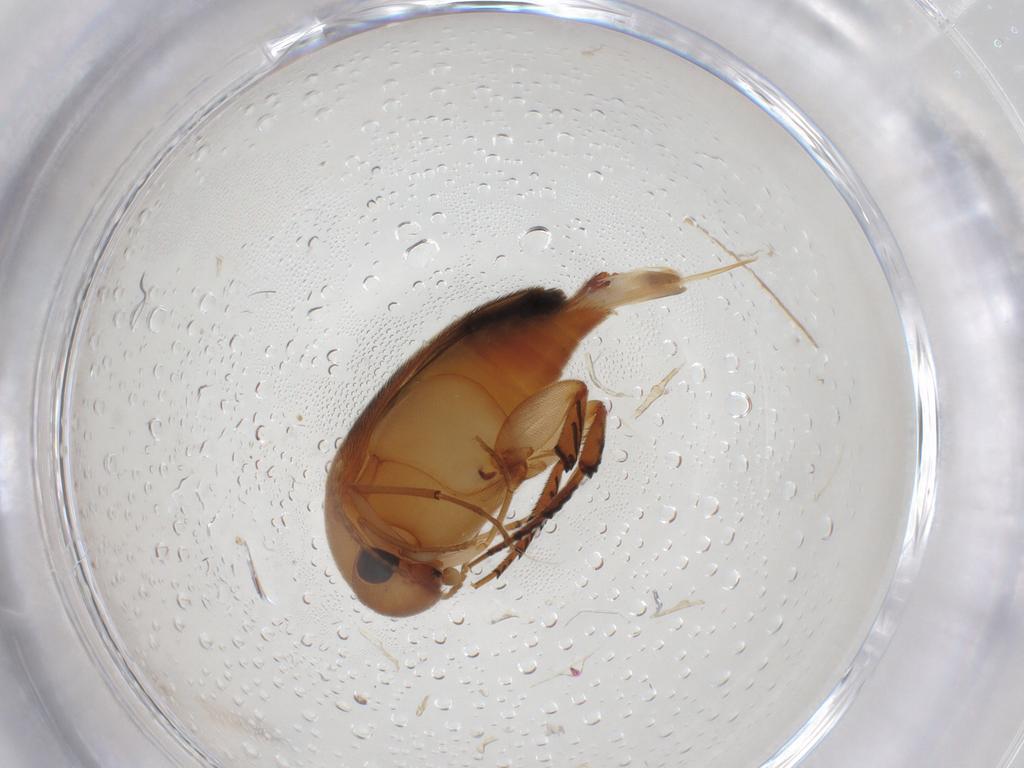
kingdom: Animalia
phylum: Arthropoda
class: Insecta
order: Coleoptera
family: Mordellidae
